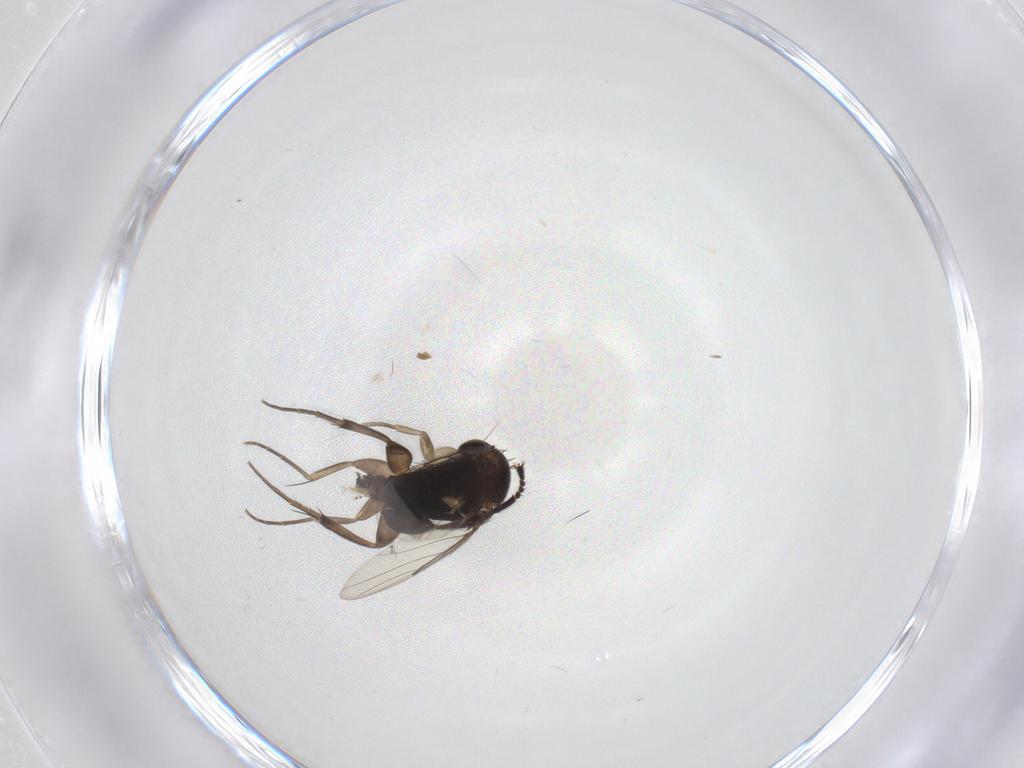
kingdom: Animalia
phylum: Arthropoda
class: Insecta
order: Diptera
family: Phoridae
